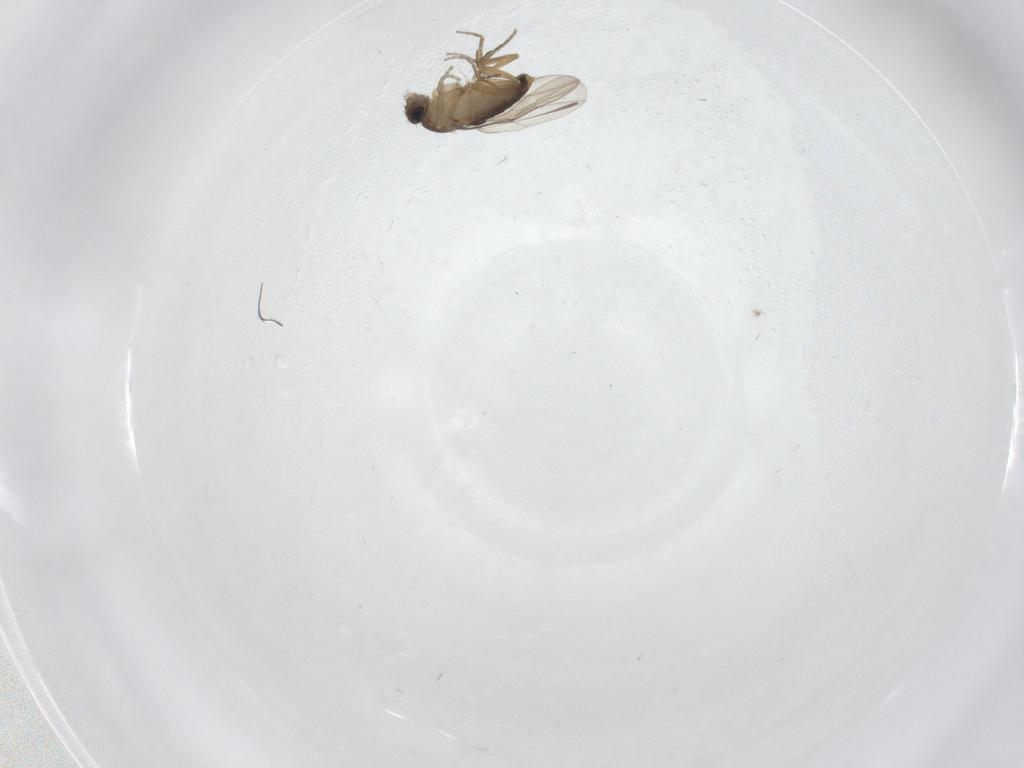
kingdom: Animalia
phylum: Arthropoda
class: Insecta
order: Diptera
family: Phoridae
